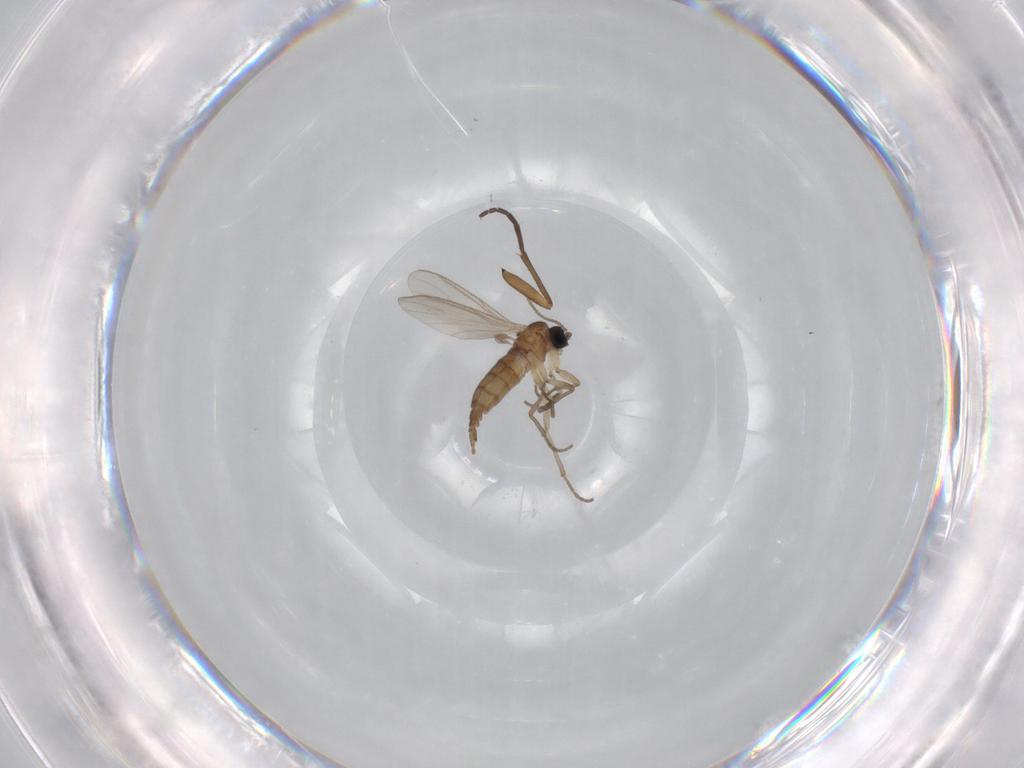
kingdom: Animalia
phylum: Arthropoda
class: Insecta
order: Diptera
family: Sciaridae
